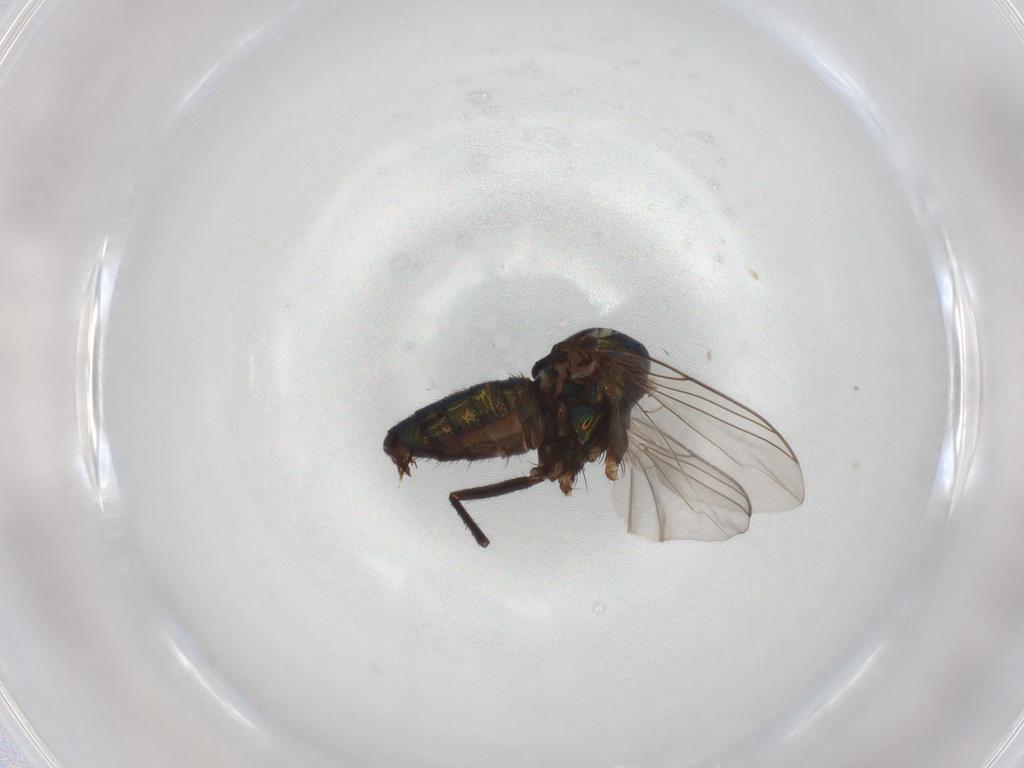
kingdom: Animalia
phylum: Arthropoda
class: Insecta
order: Diptera
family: Dolichopodidae
